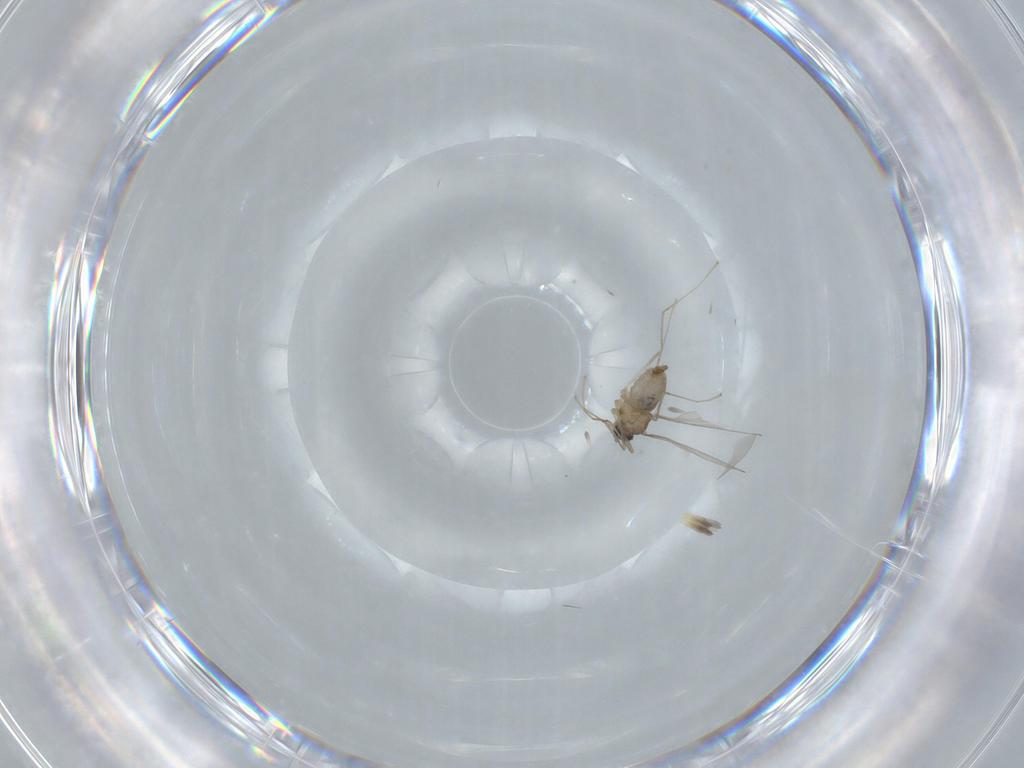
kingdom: Animalia
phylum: Arthropoda
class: Insecta
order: Diptera
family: Cecidomyiidae
